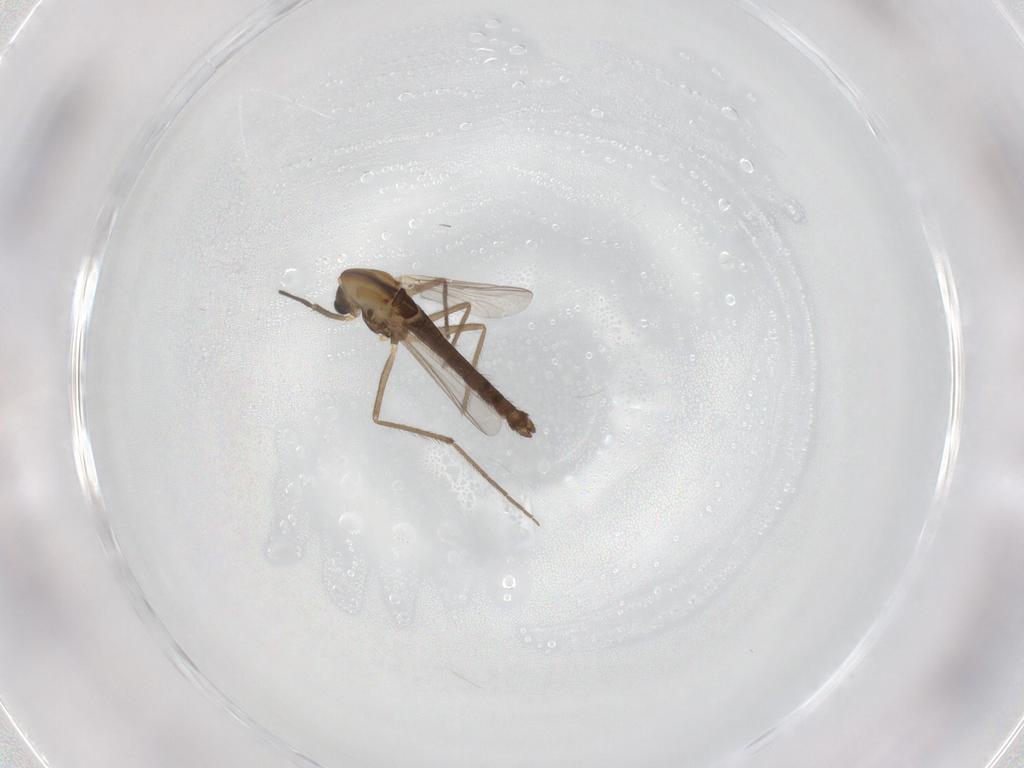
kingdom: Animalia
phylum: Arthropoda
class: Insecta
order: Diptera
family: Chironomidae
